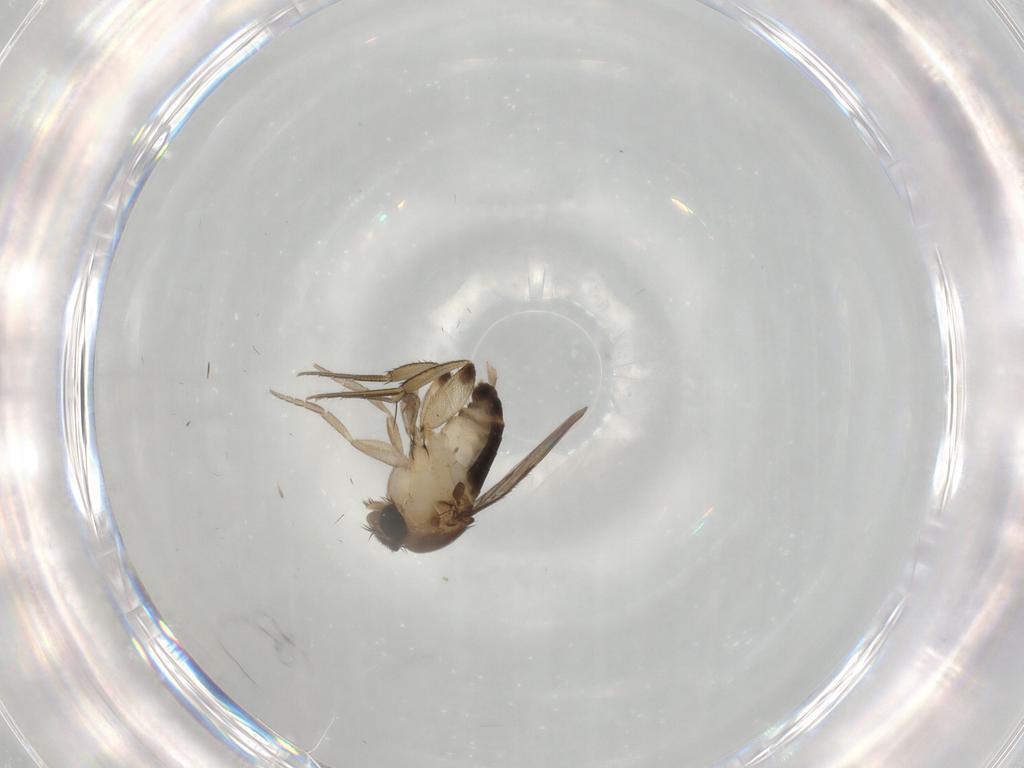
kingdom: Animalia
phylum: Arthropoda
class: Insecta
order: Diptera
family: Phoridae
